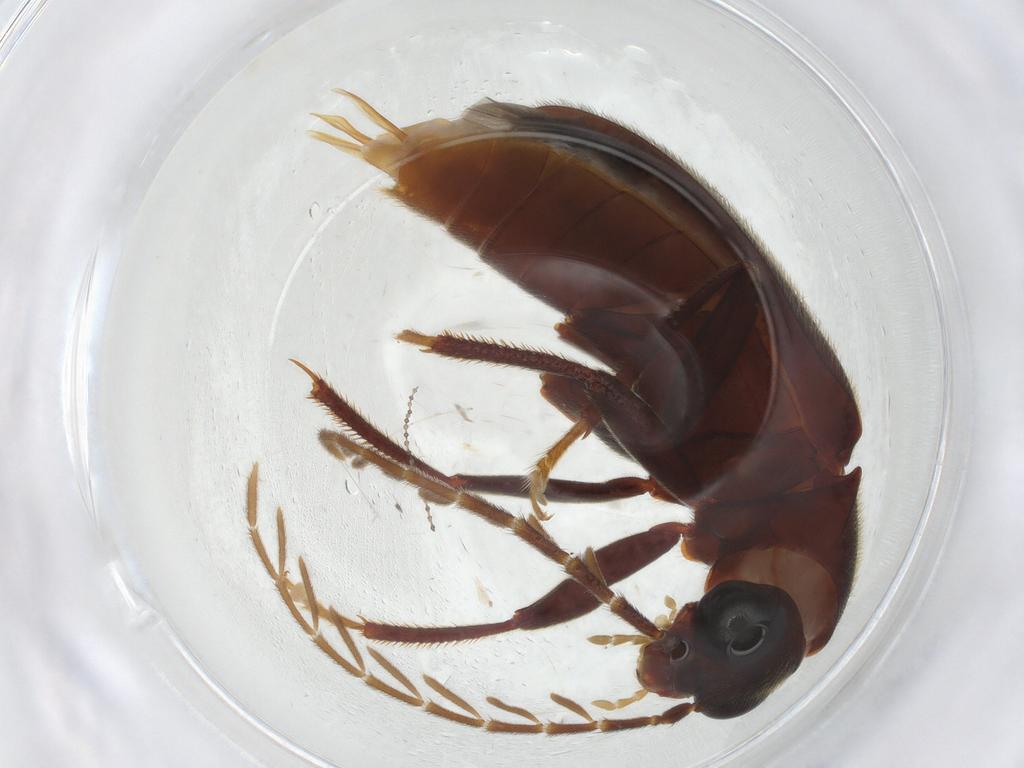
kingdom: Animalia
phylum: Arthropoda
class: Insecta
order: Coleoptera
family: Ptilodactylidae
